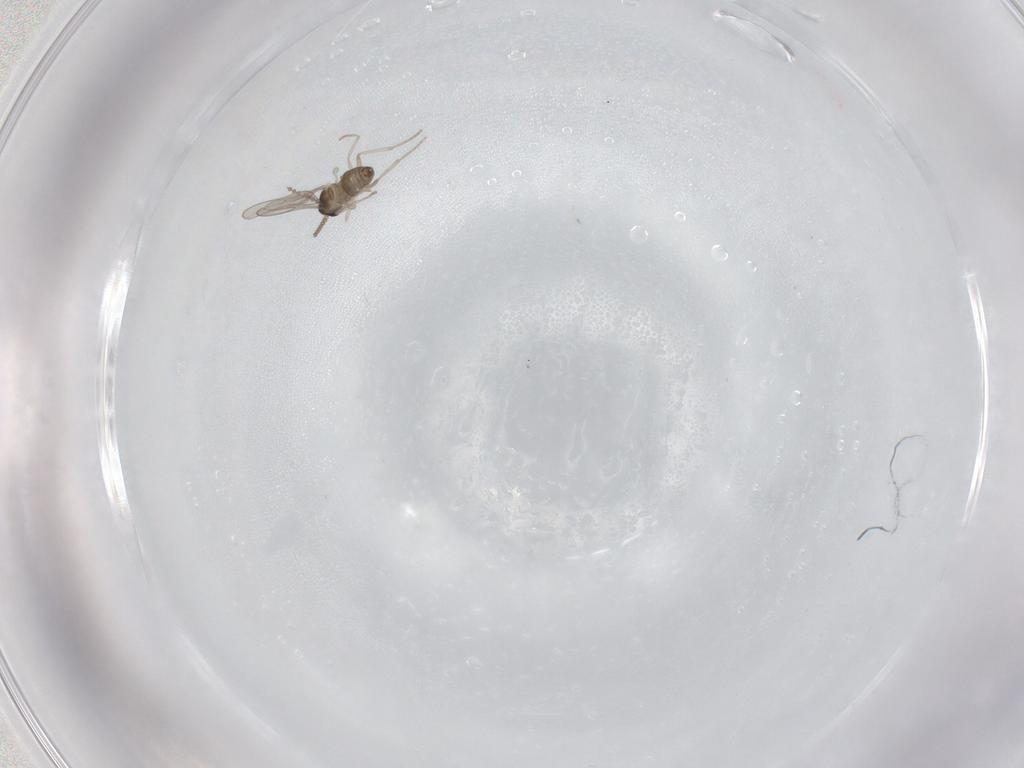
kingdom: Animalia
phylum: Arthropoda
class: Insecta
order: Diptera
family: Cecidomyiidae
